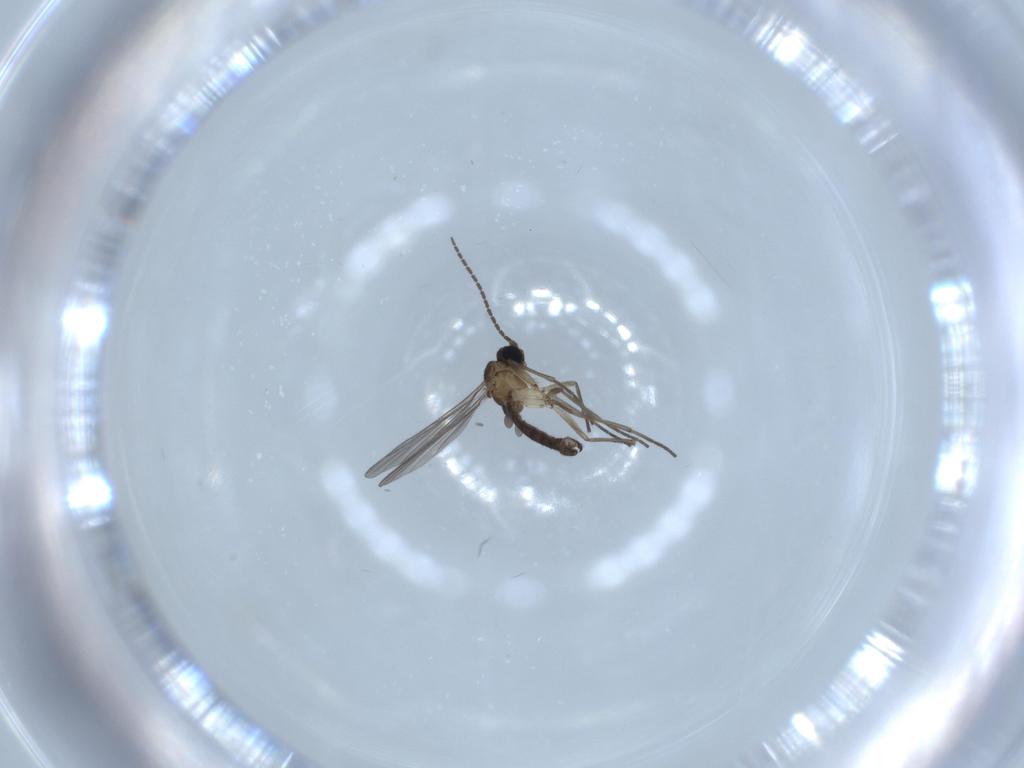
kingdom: Animalia
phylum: Arthropoda
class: Insecta
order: Diptera
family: Sciaridae
